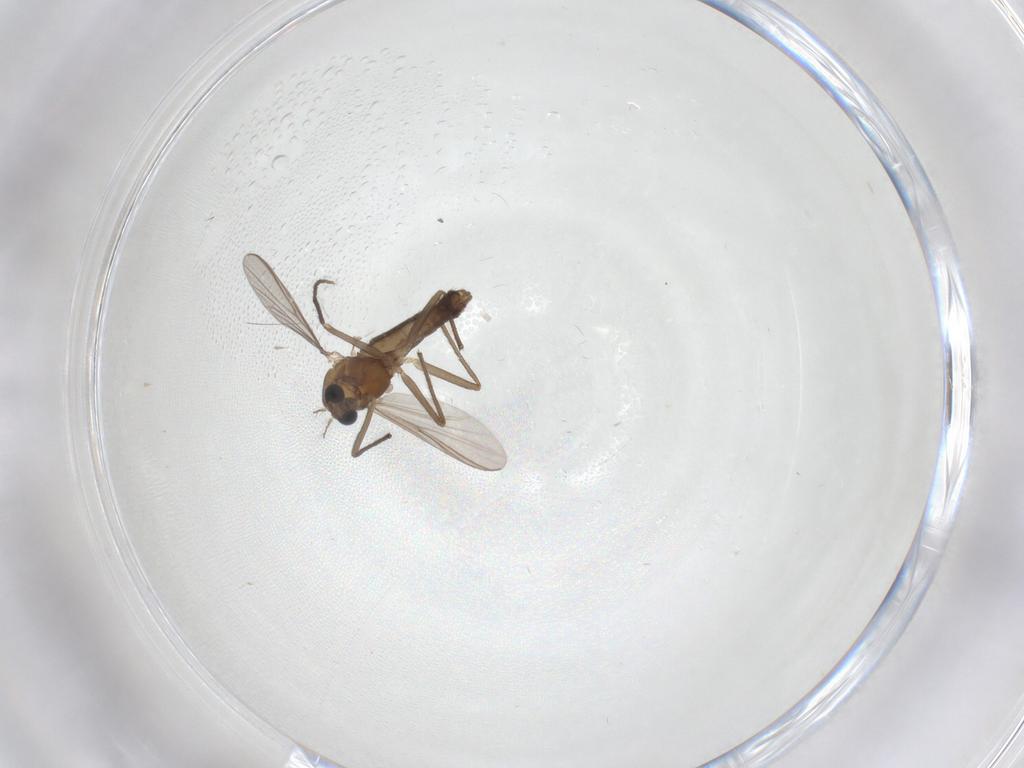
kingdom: Animalia
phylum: Arthropoda
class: Insecta
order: Diptera
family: Chironomidae
